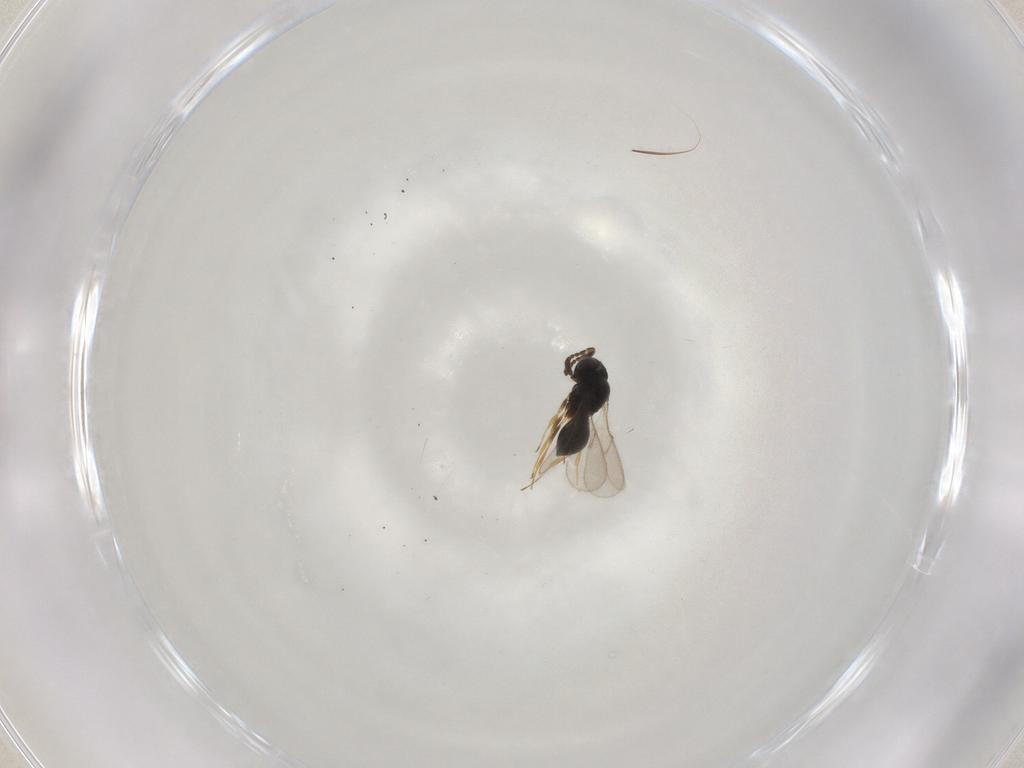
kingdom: Animalia
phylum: Arthropoda
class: Insecta
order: Hymenoptera
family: Scelionidae
